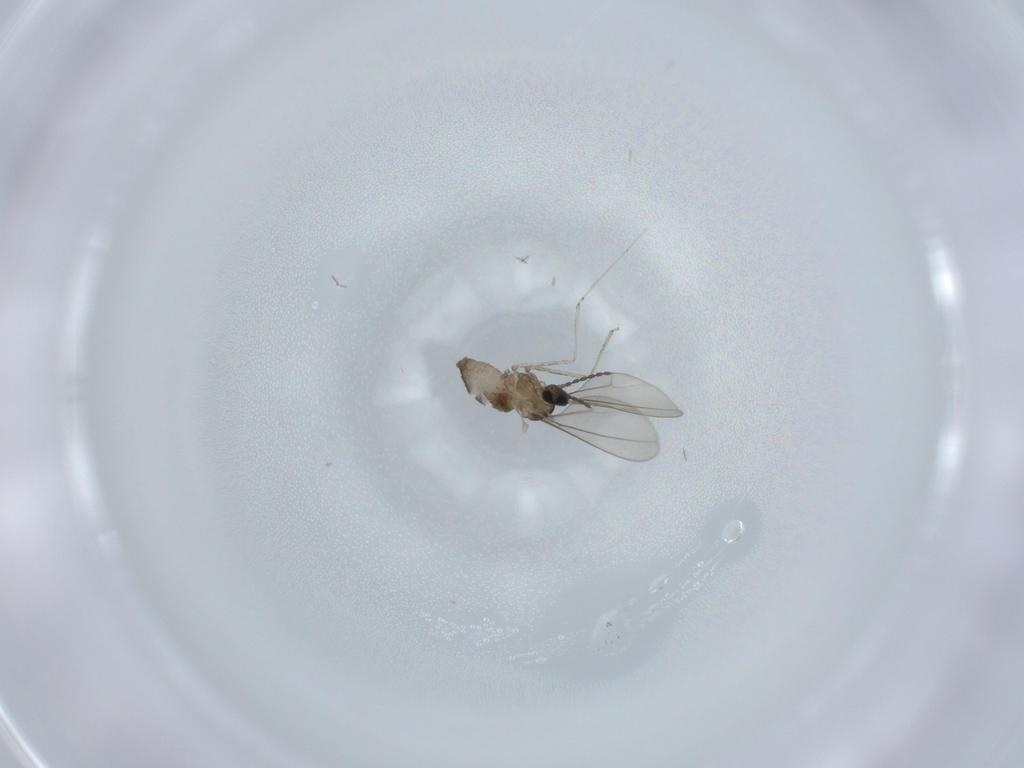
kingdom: Animalia
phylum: Arthropoda
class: Insecta
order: Diptera
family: Cecidomyiidae
